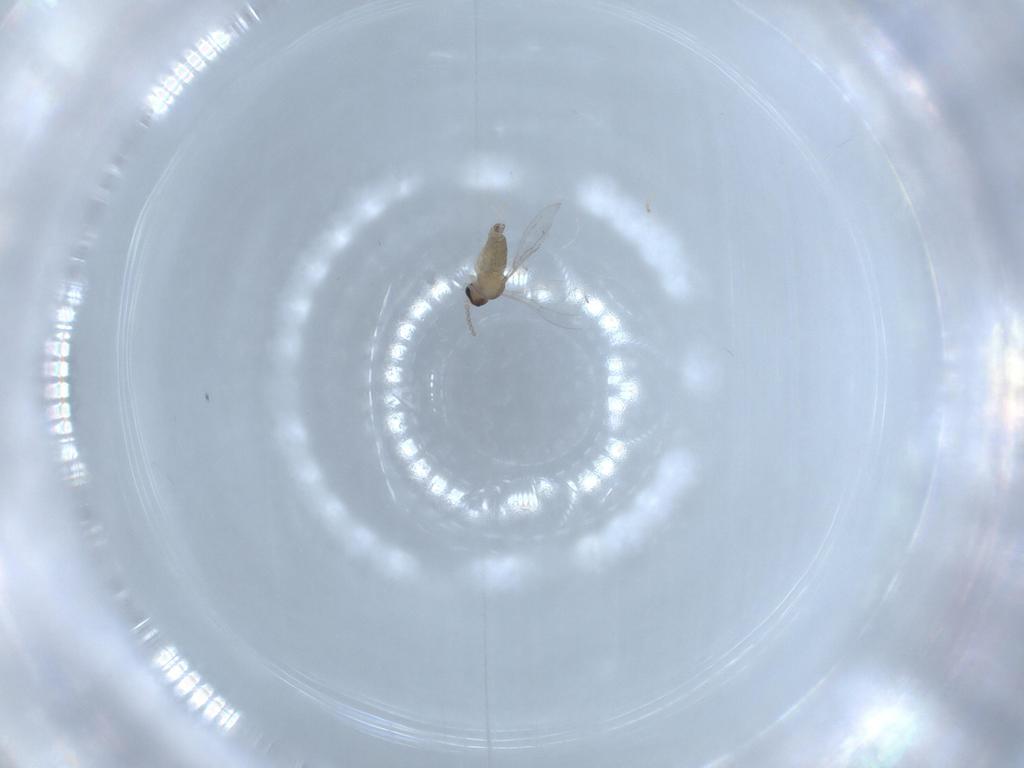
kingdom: Animalia
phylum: Arthropoda
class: Insecta
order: Diptera
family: Cecidomyiidae
